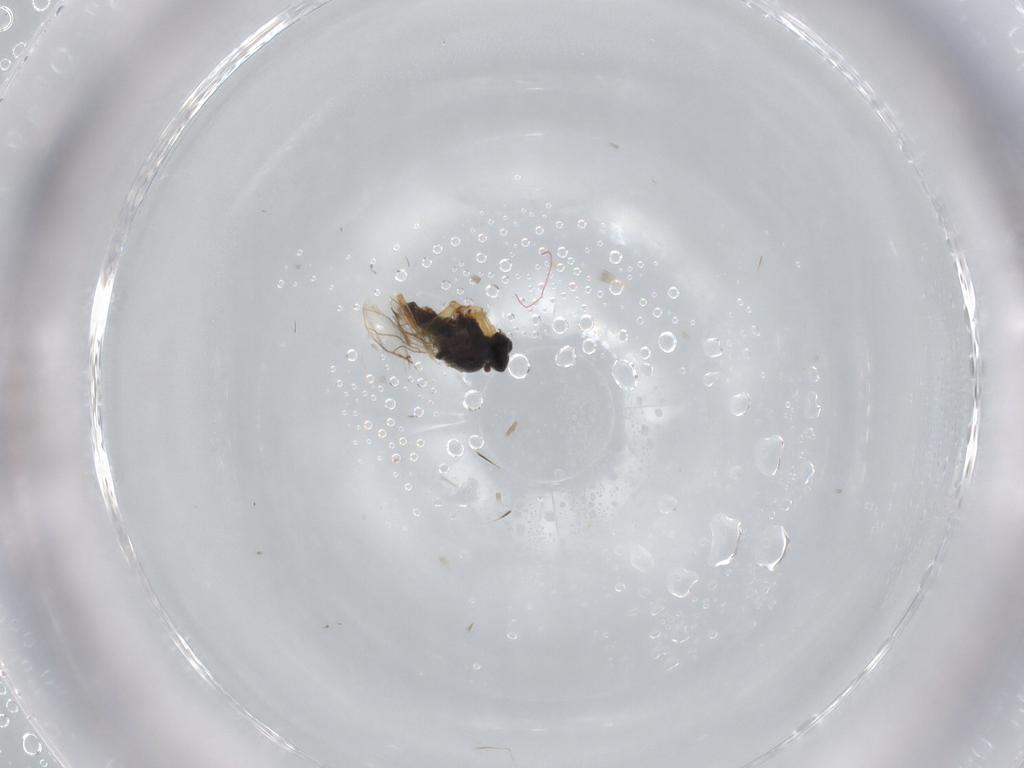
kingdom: Animalia
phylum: Arthropoda
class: Insecta
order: Diptera
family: Hybotidae
